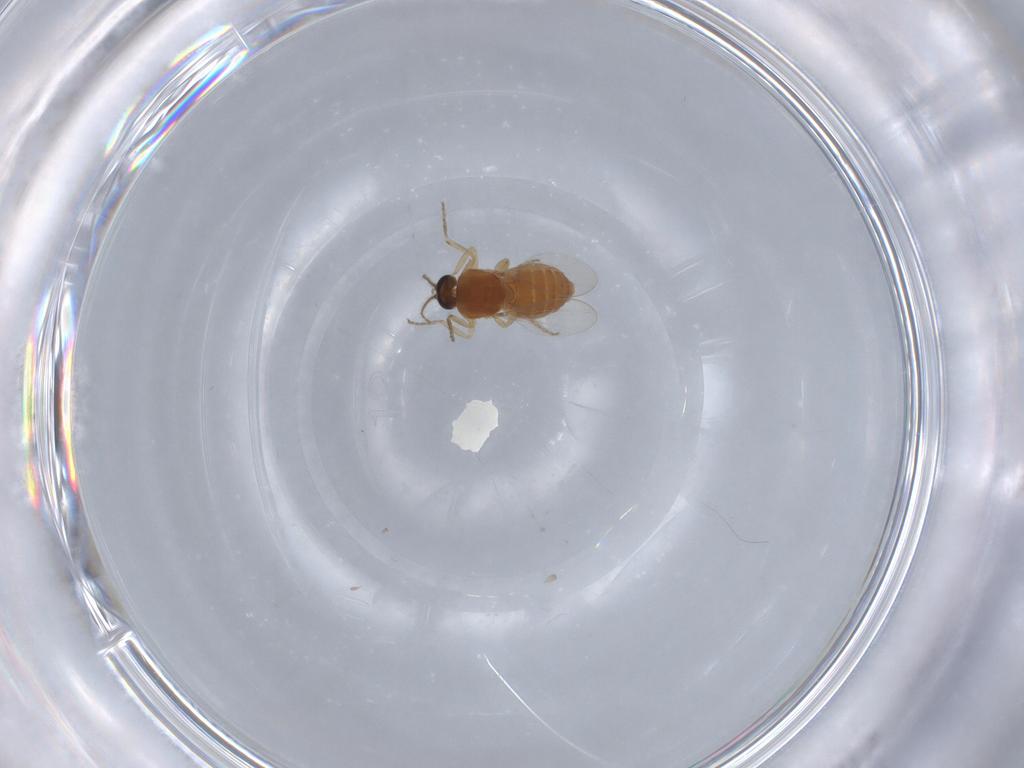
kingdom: Animalia
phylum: Arthropoda
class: Insecta
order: Diptera
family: Ceratopogonidae
